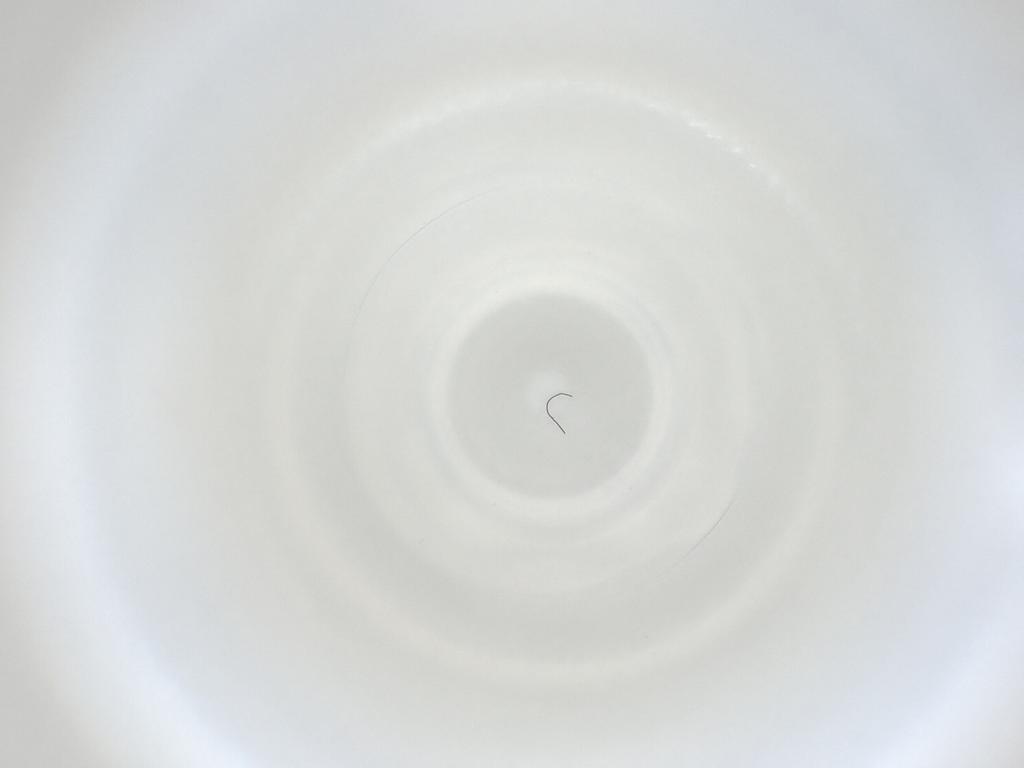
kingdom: Animalia
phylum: Arthropoda
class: Insecta
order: Diptera
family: Cecidomyiidae
